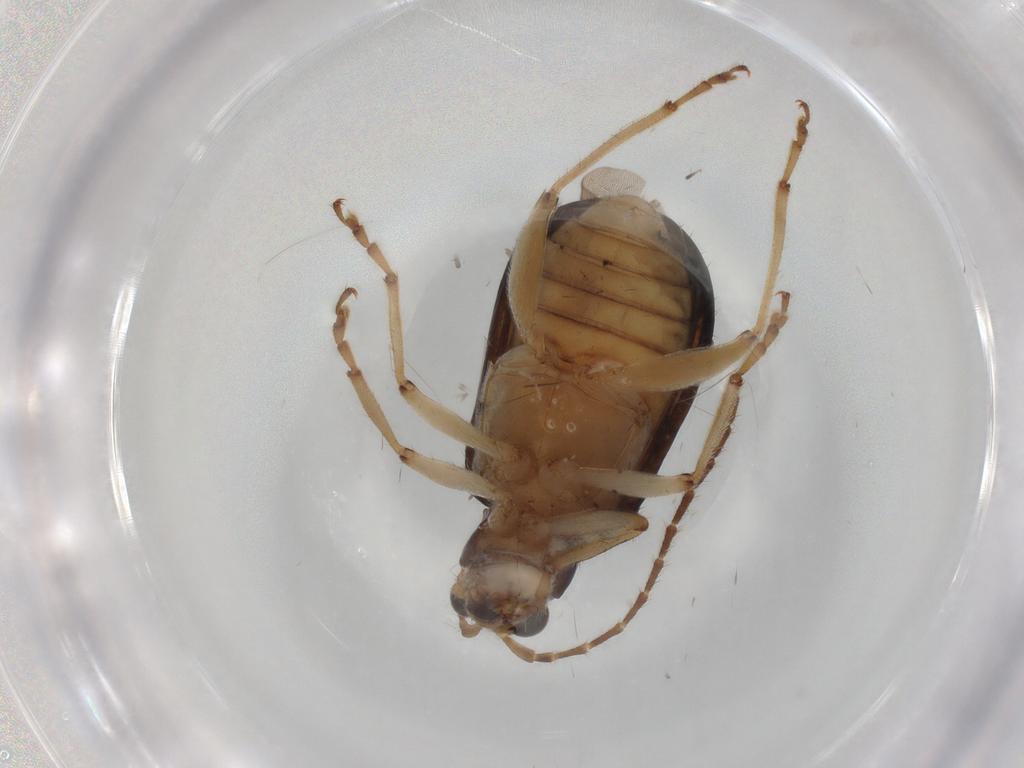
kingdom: Animalia
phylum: Arthropoda
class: Insecta
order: Coleoptera
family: Chrysomelidae
